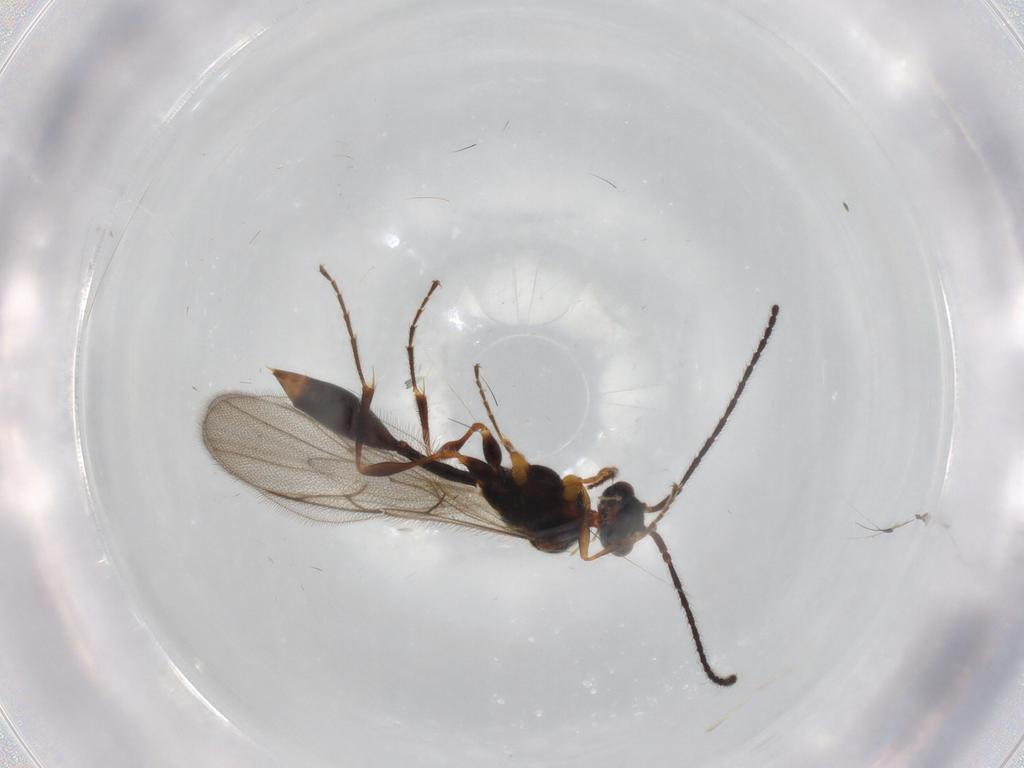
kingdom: Animalia
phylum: Arthropoda
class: Insecta
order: Hymenoptera
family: Diapriidae
